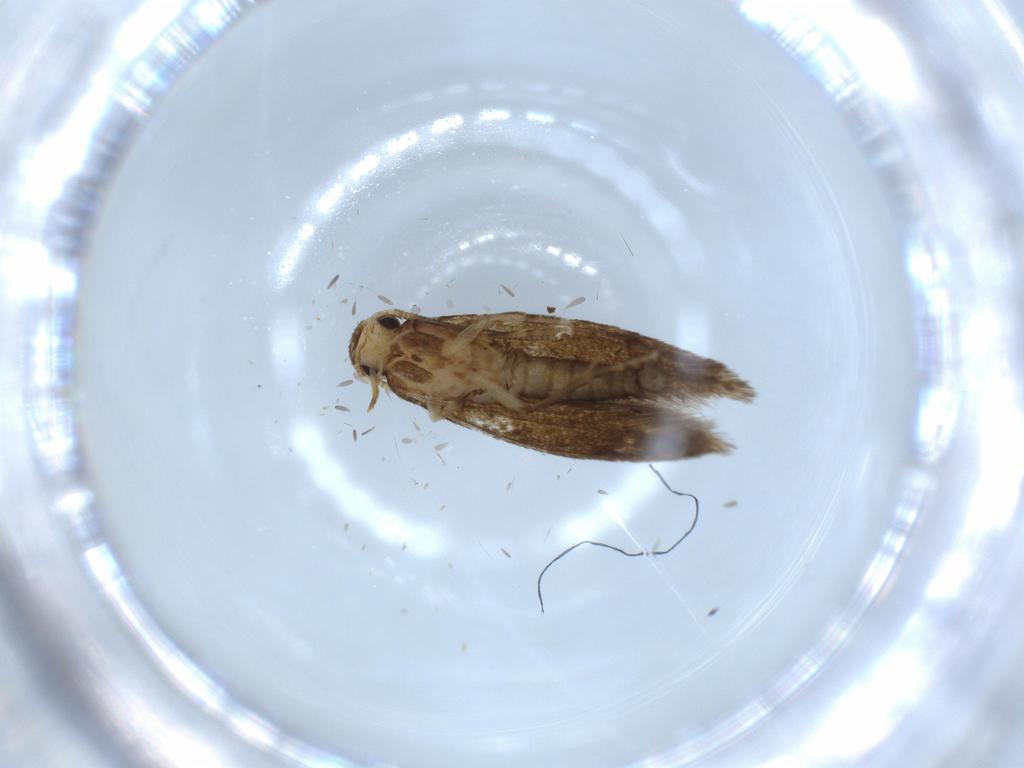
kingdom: Animalia
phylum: Arthropoda
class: Insecta
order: Lepidoptera
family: Tineidae
